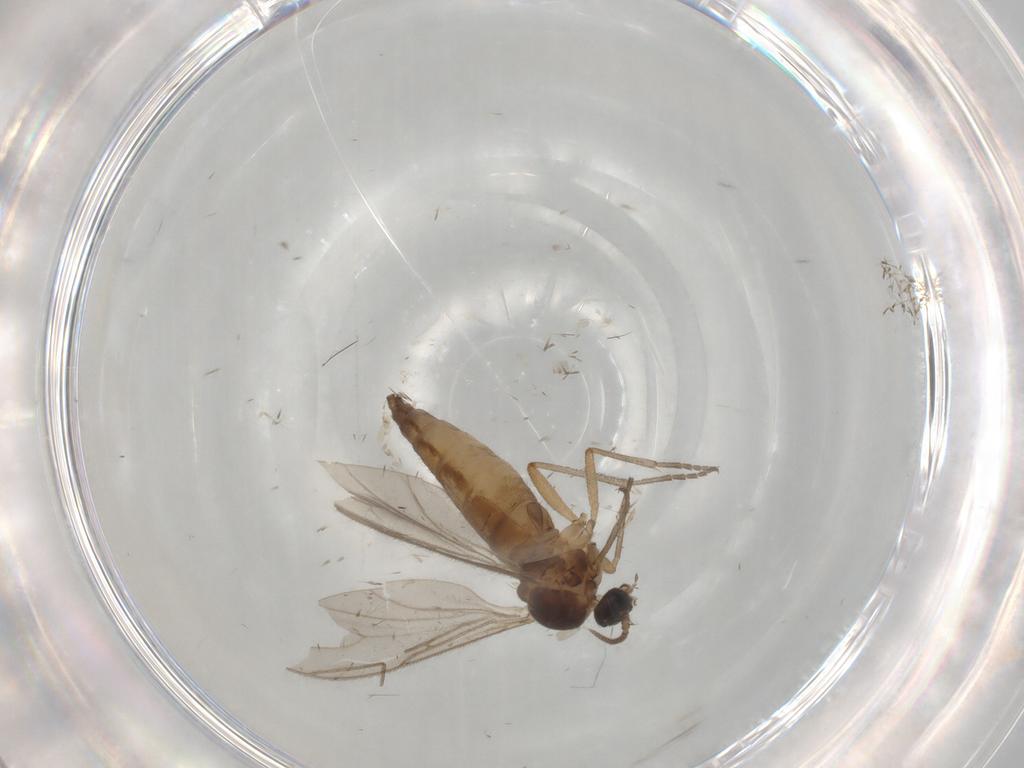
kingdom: Animalia
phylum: Arthropoda
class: Insecta
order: Diptera
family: Sciaridae
